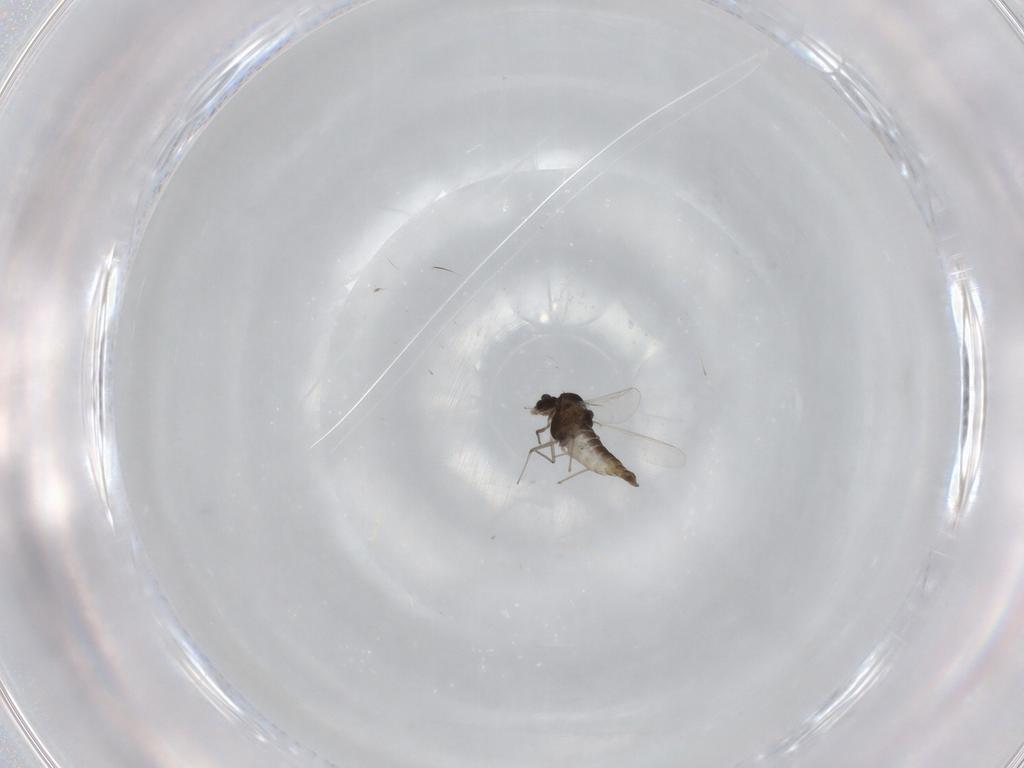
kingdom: Animalia
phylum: Arthropoda
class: Insecta
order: Diptera
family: Chironomidae
